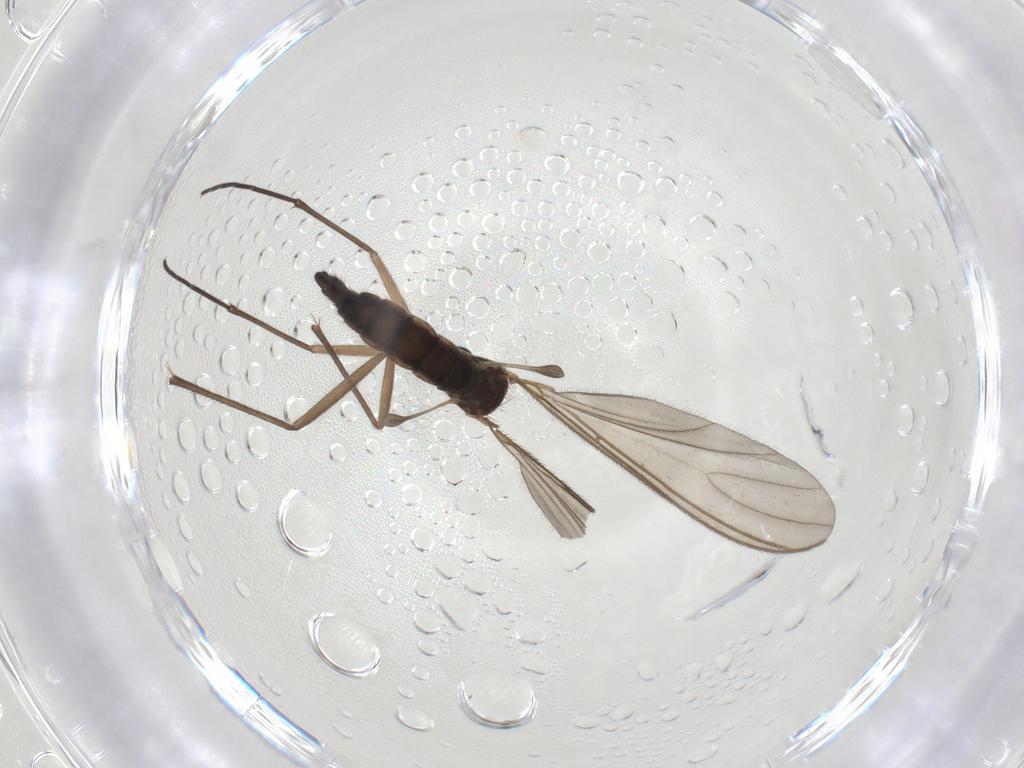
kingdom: Animalia
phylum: Arthropoda
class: Insecta
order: Diptera
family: Sciaridae
